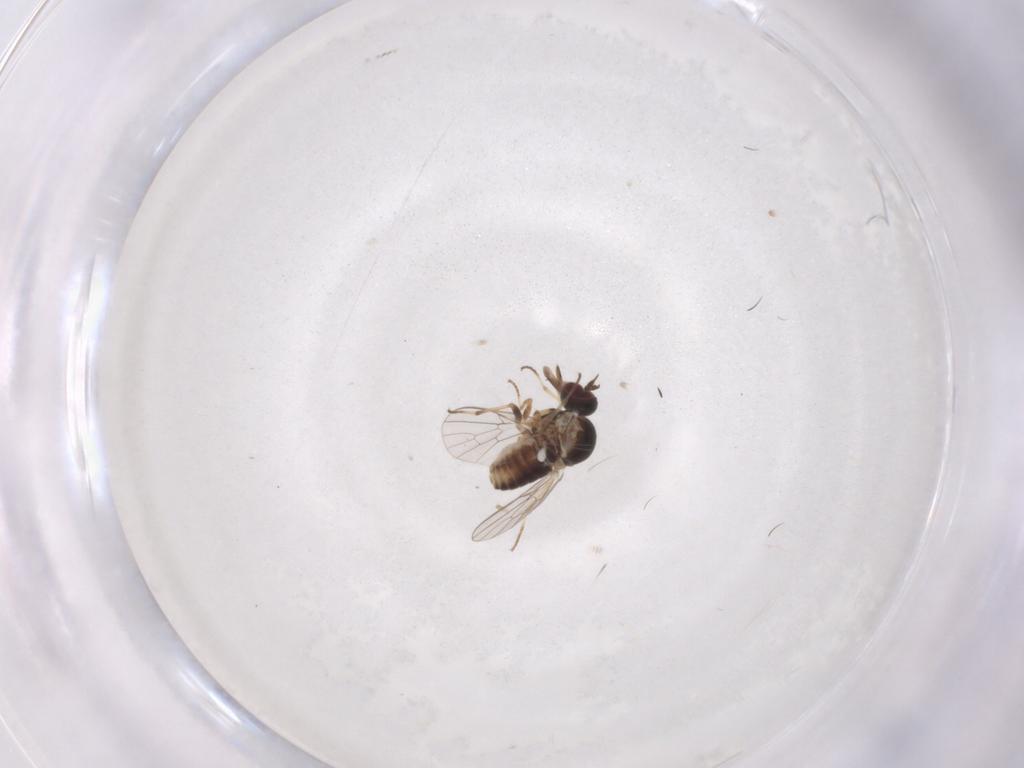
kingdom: Animalia
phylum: Arthropoda
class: Insecta
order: Diptera
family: Bombyliidae
